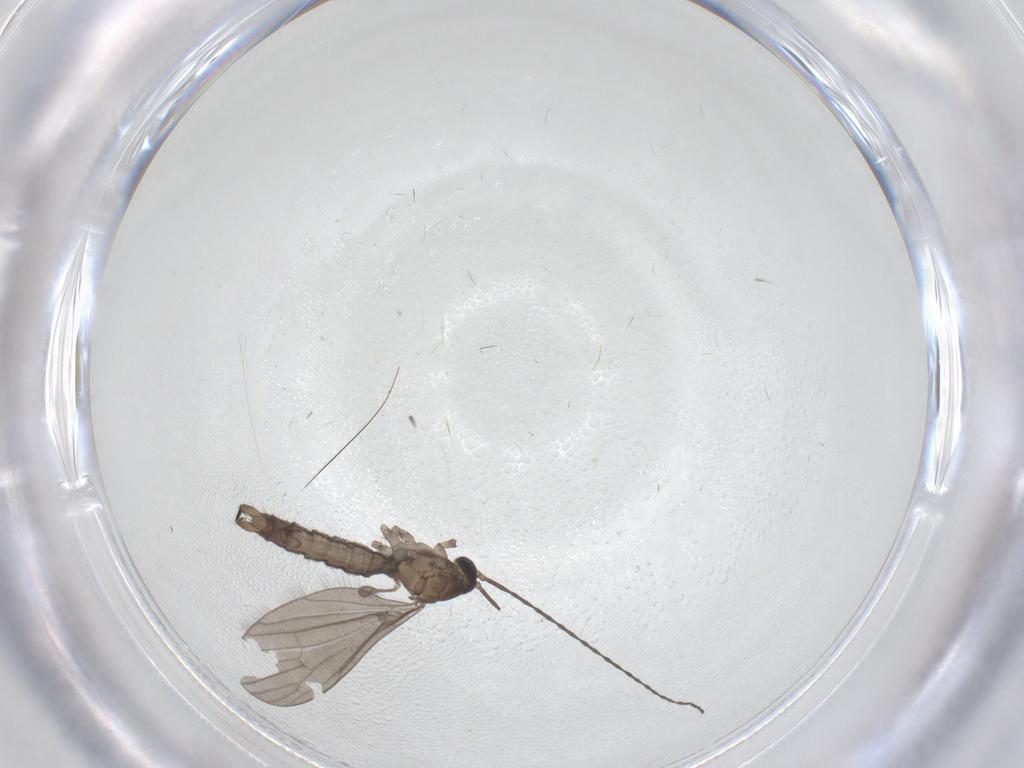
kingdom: Animalia
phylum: Arthropoda
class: Insecta
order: Diptera
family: Limoniidae
